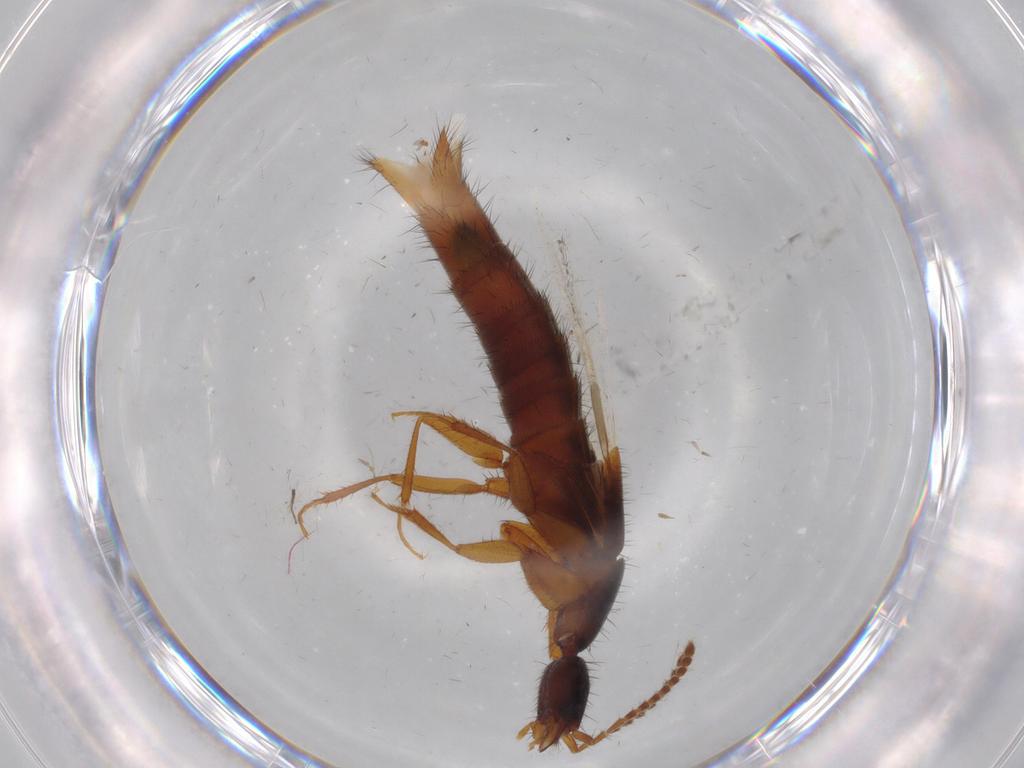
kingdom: Animalia
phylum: Arthropoda
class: Insecta
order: Coleoptera
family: Staphylinidae
